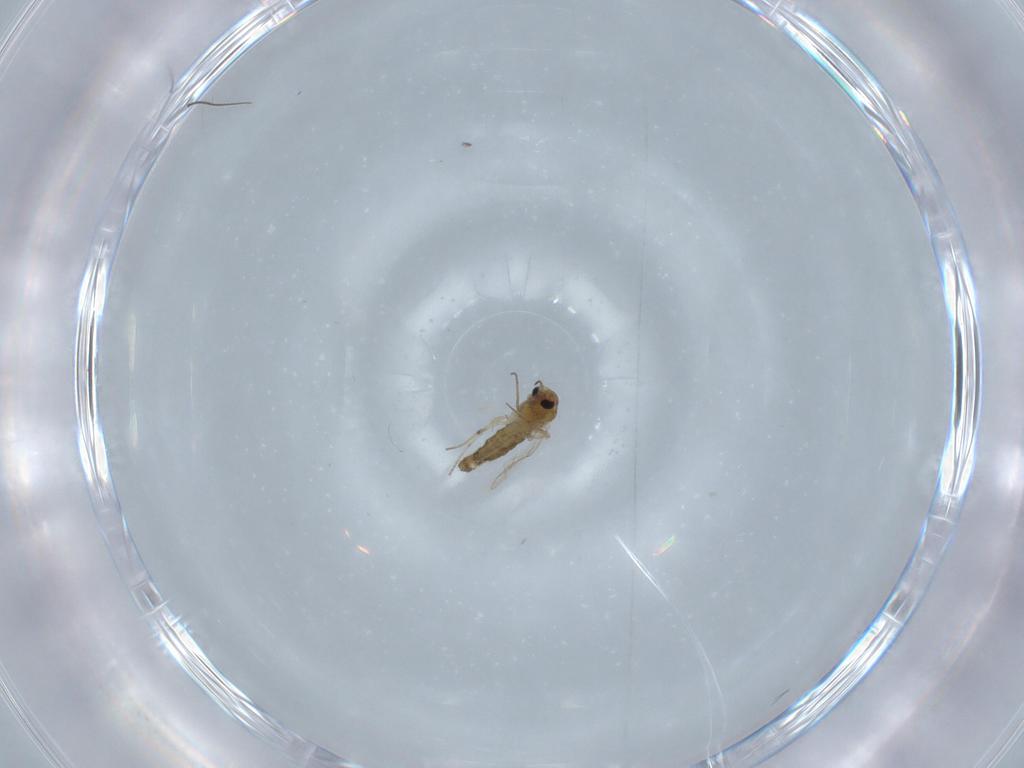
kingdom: Animalia
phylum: Arthropoda
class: Insecta
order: Diptera
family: Chironomidae
